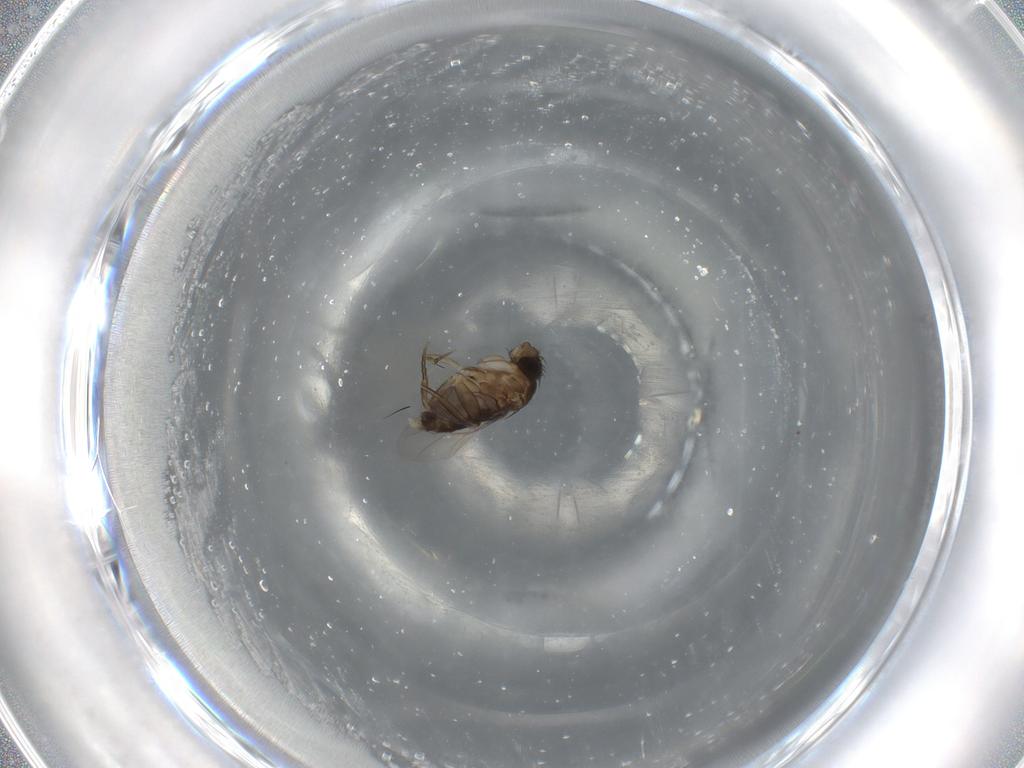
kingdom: Animalia
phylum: Arthropoda
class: Insecta
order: Diptera
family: Phoridae
